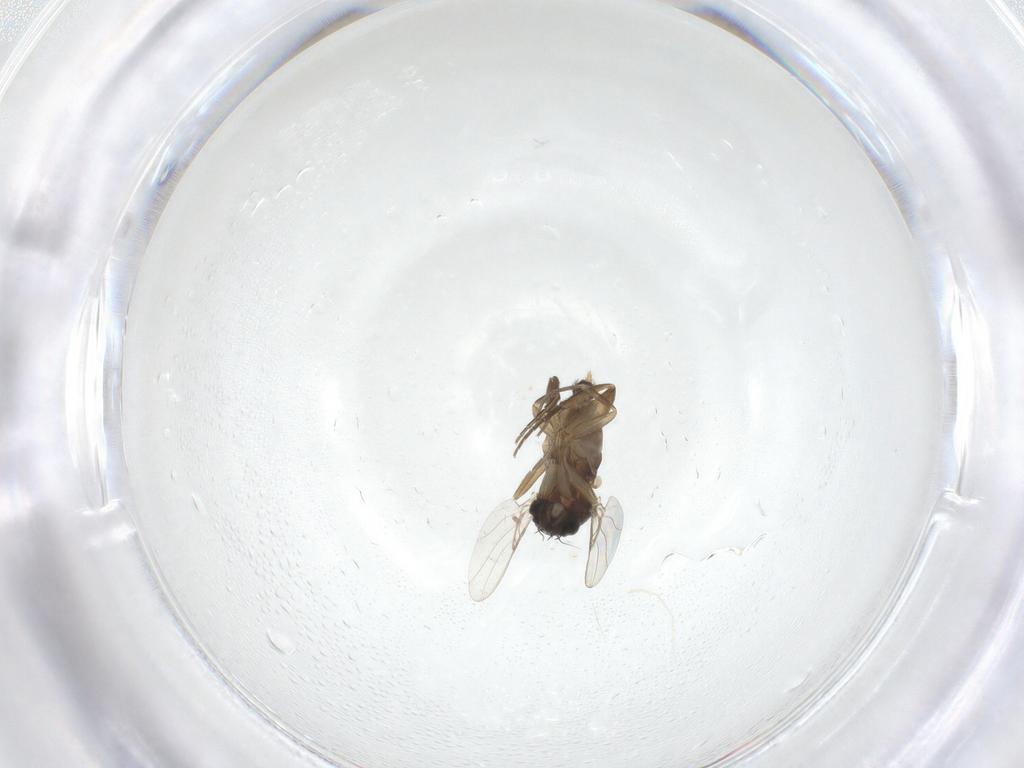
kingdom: Animalia
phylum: Arthropoda
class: Insecta
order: Diptera
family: Phoridae
